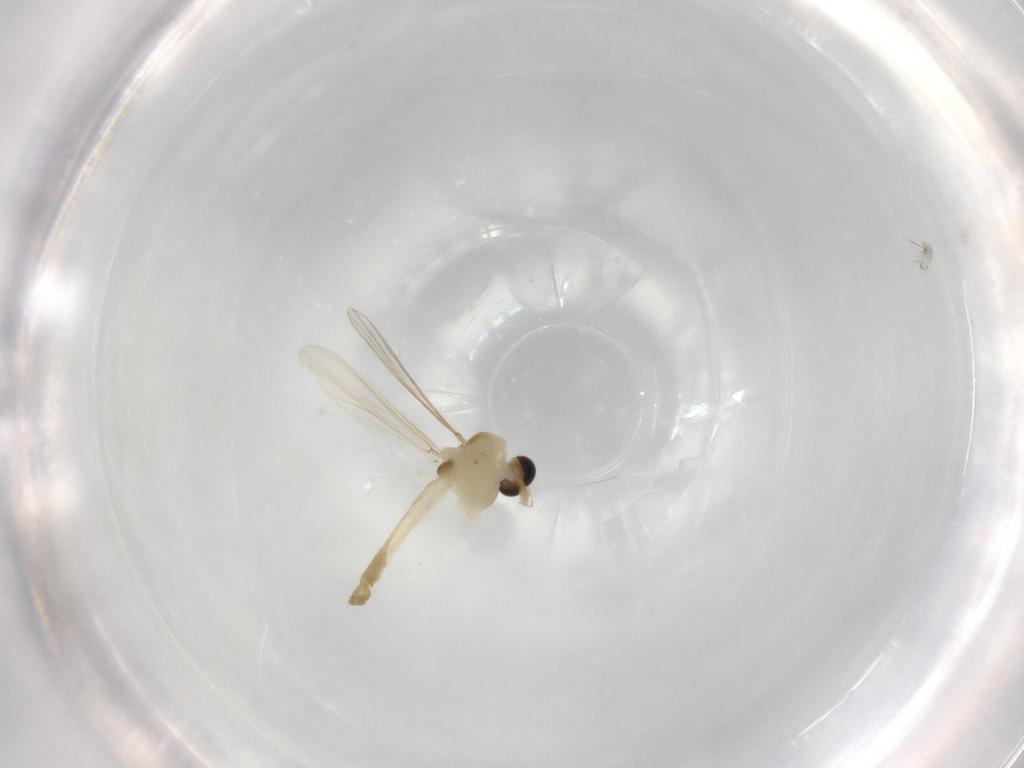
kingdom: Animalia
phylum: Arthropoda
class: Insecta
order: Diptera
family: Chironomidae
